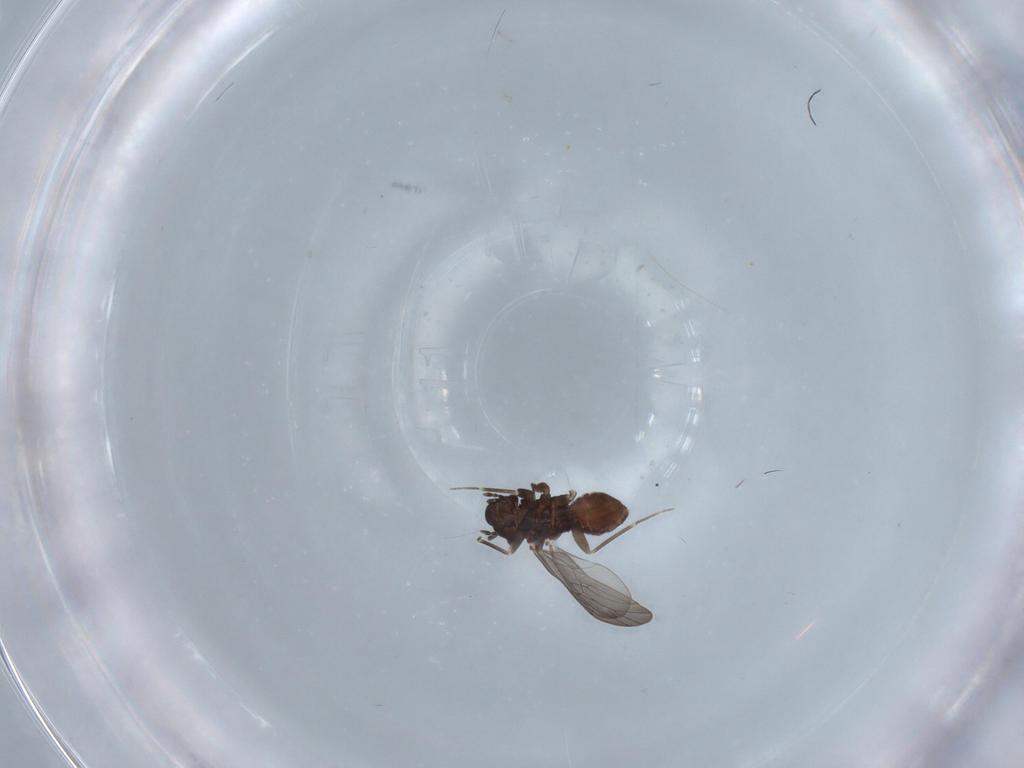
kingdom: Animalia
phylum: Arthropoda
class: Insecta
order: Psocodea
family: Lepidopsocidae
